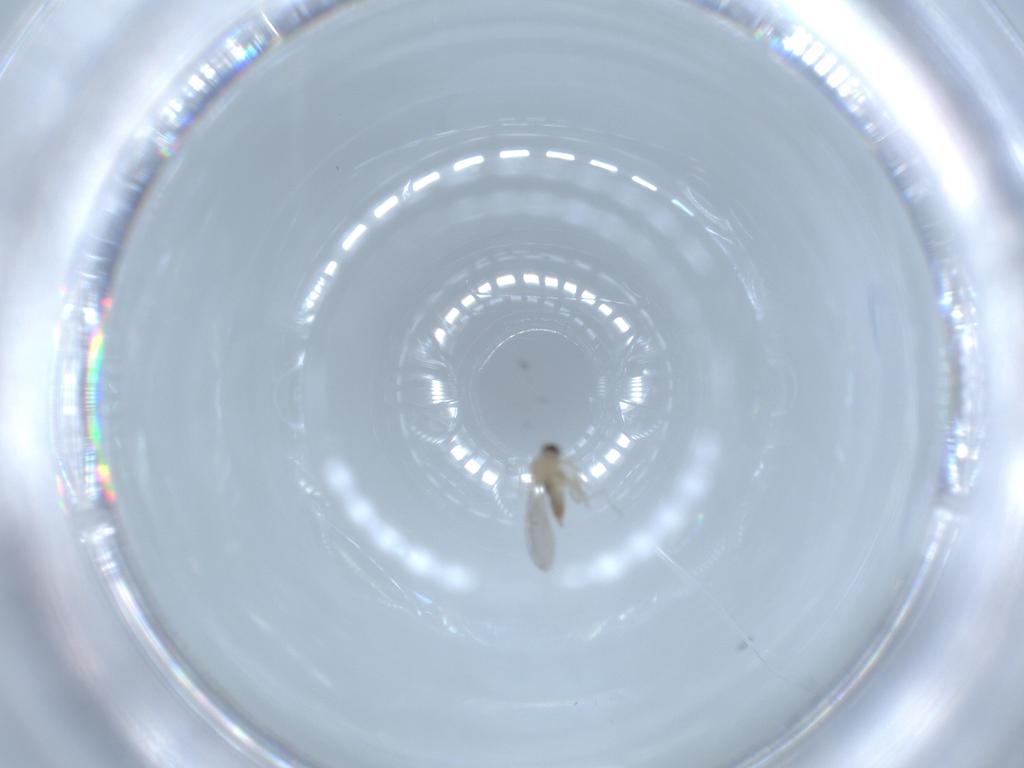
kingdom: Animalia
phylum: Arthropoda
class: Insecta
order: Diptera
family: Cecidomyiidae
